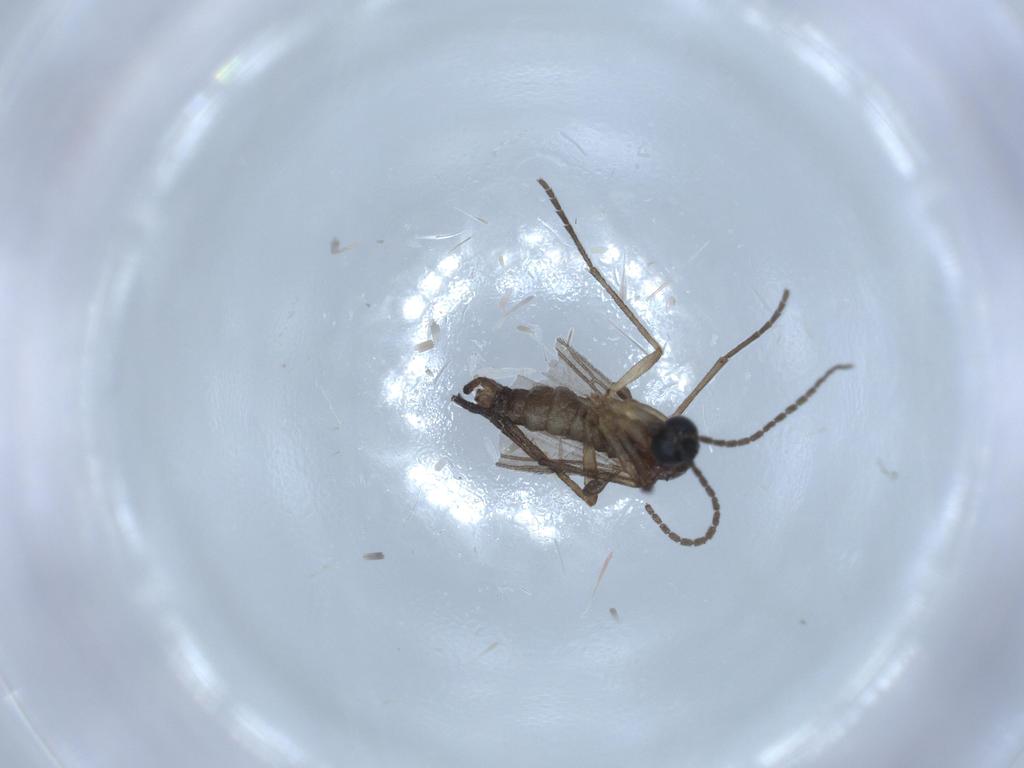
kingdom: Animalia
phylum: Arthropoda
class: Insecta
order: Diptera
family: Sciaridae
